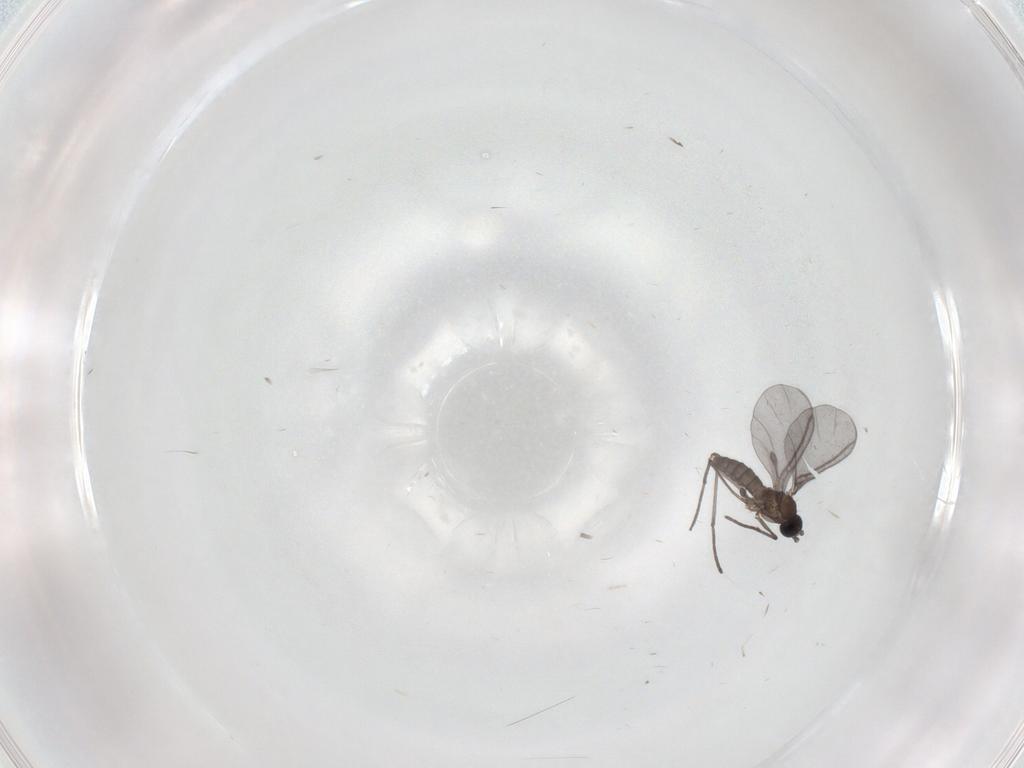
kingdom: Animalia
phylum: Arthropoda
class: Insecta
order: Diptera
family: Sciaridae
